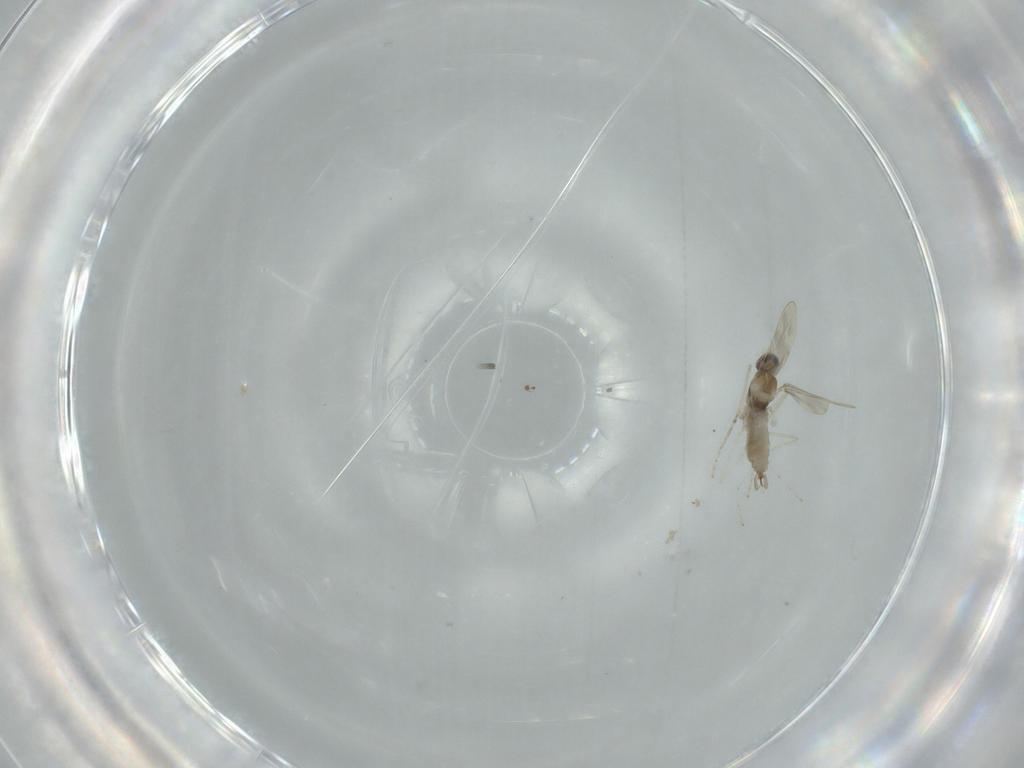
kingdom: Animalia
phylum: Arthropoda
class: Insecta
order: Diptera
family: Cecidomyiidae
